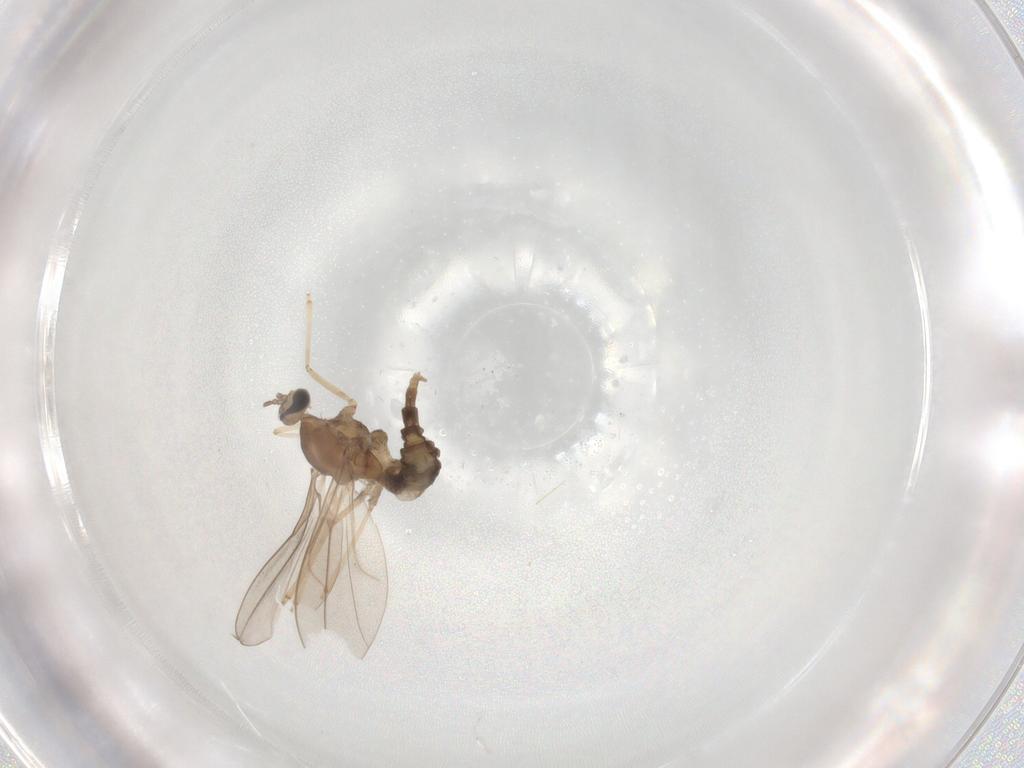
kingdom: Animalia
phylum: Arthropoda
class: Insecta
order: Diptera
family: Cecidomyiidae
